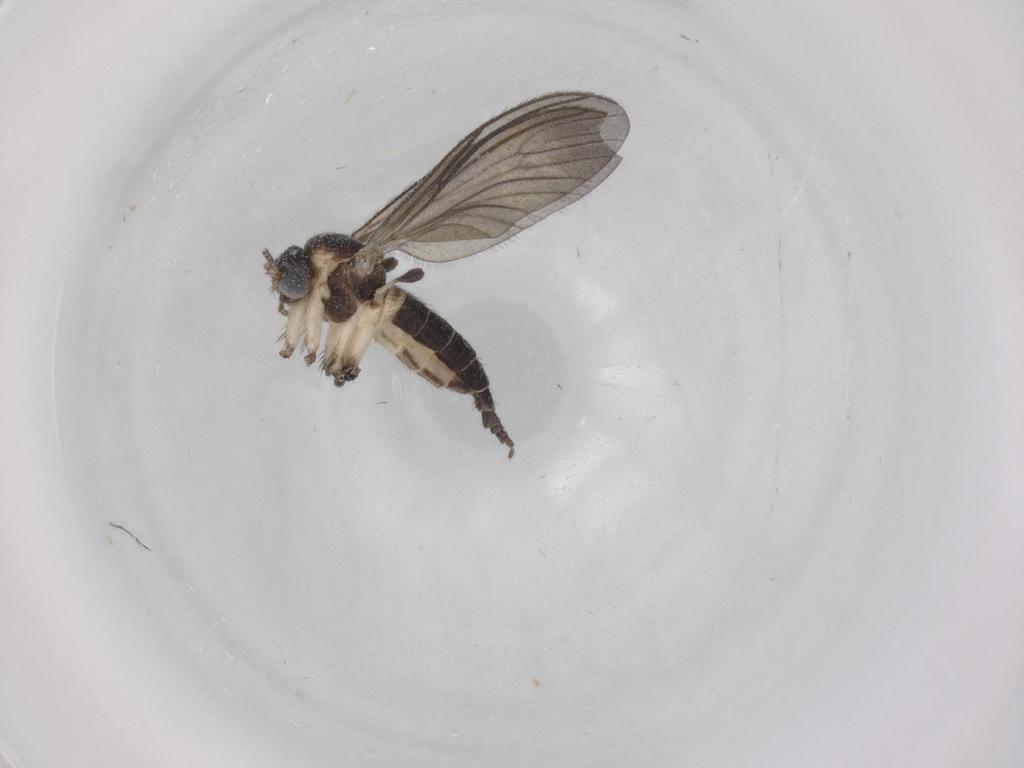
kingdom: Animalia
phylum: Arthropoda
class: Insecta
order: Diptera
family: Sciaridae
